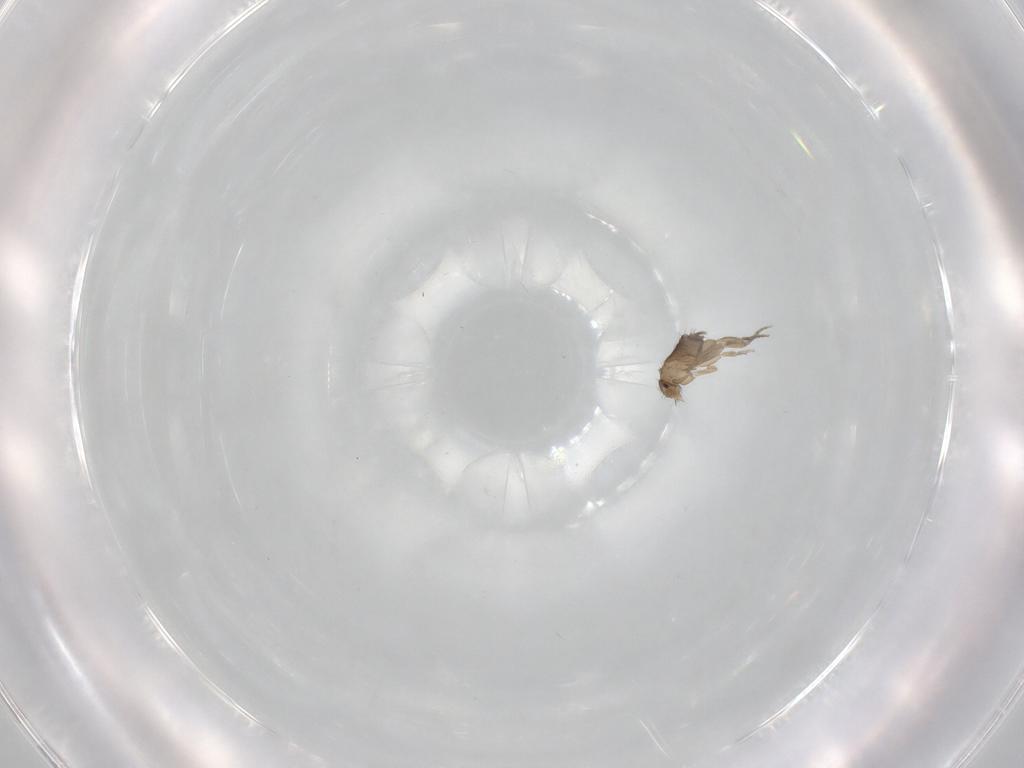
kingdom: Animalia
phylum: Arthropoda
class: Insecta
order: Diptera
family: Phoridae
